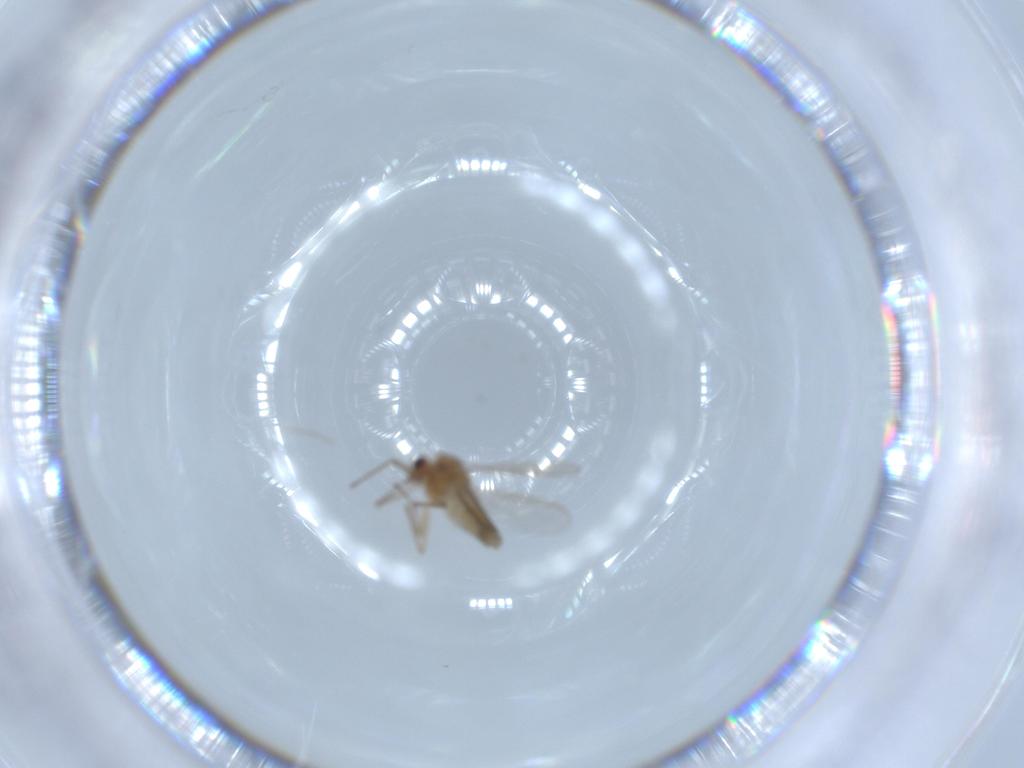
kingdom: Animalia
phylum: Arthropoda
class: Insecta
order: Diptera
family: Chironomidae
